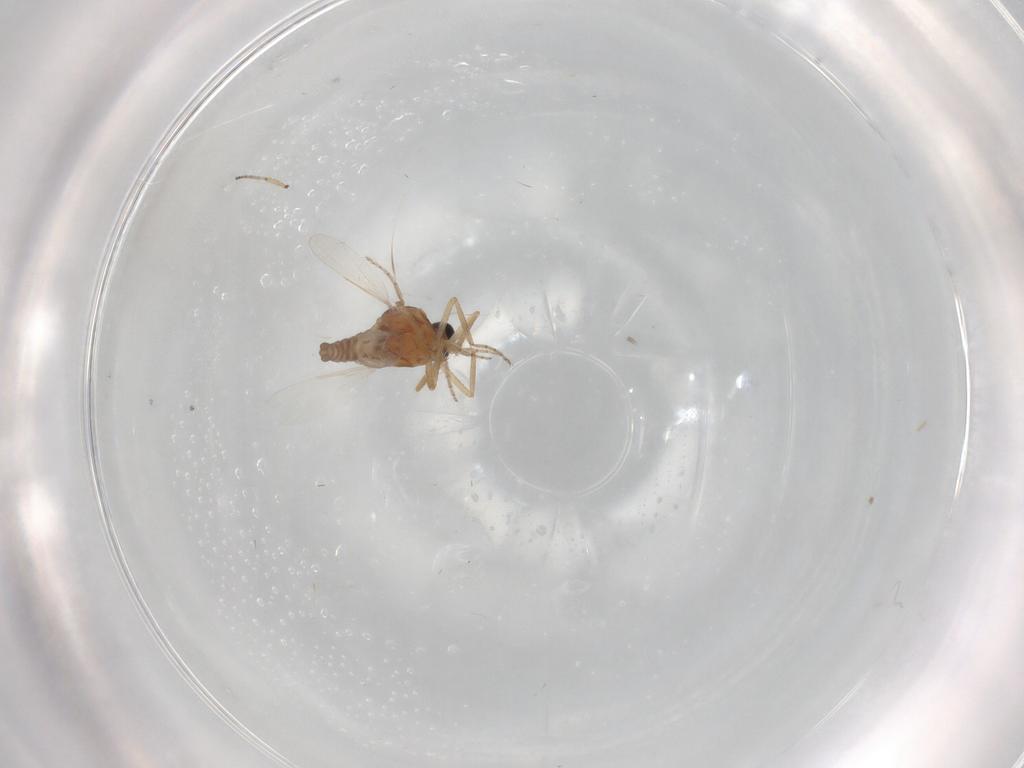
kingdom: Animalia
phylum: Arthropoda
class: Insecta
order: Diptera
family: Ceratopogonidae
